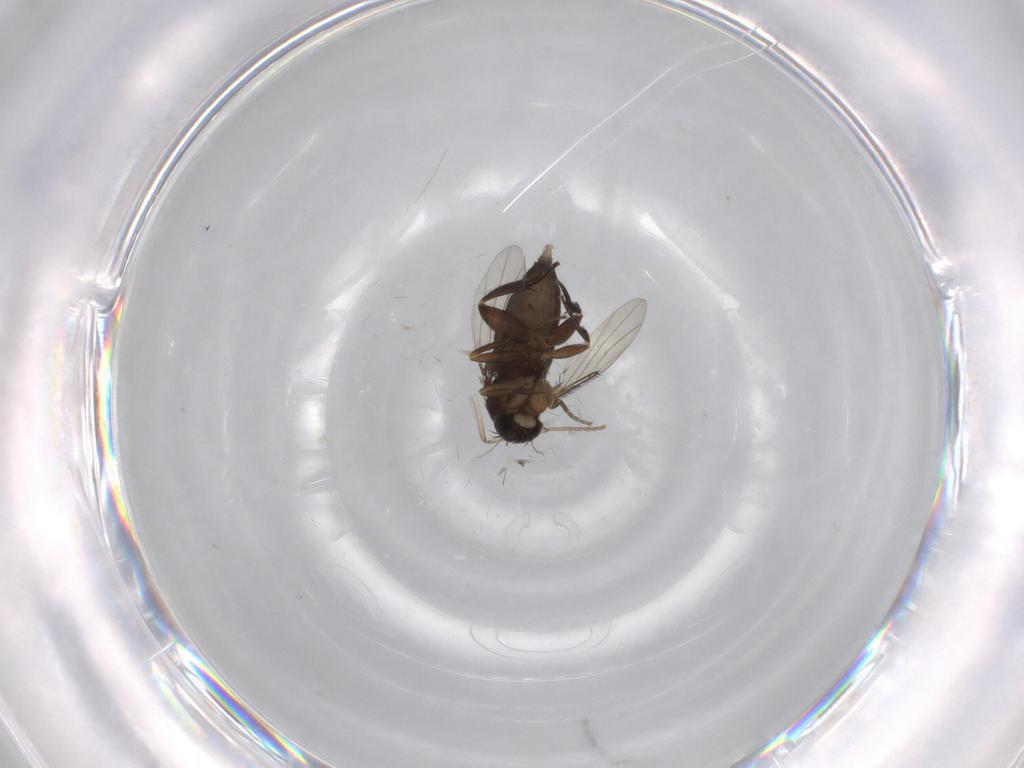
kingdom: Animalia
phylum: Arthropoda
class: Insecta
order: Diptera
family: Phoridae
